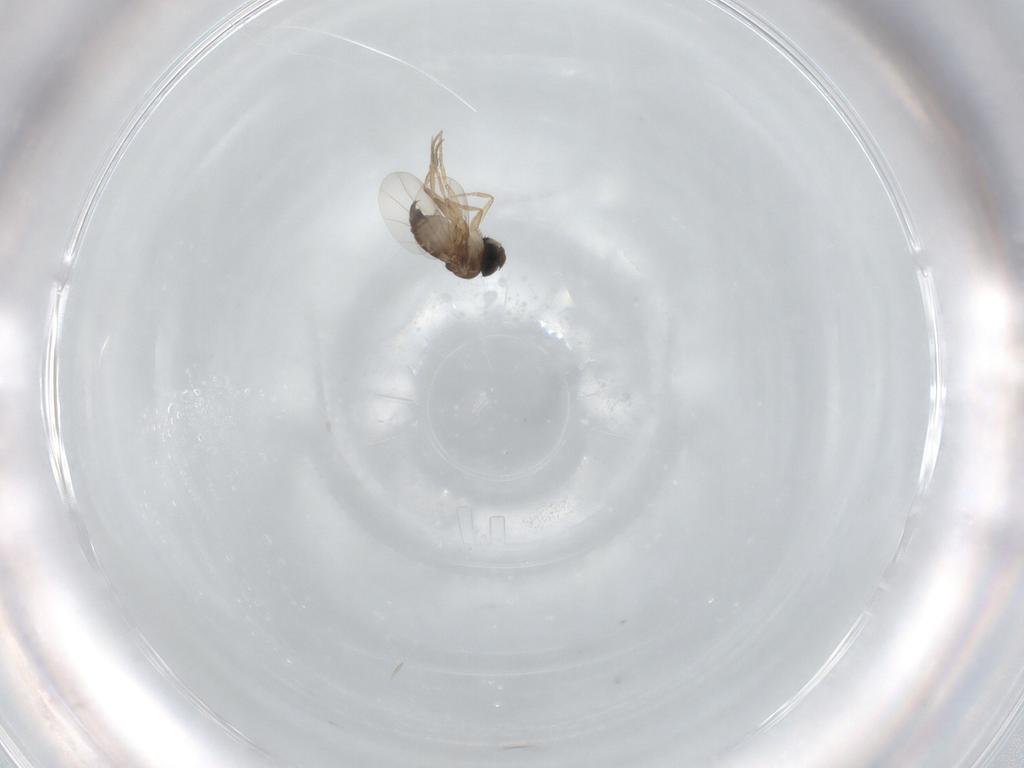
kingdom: Animalia
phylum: Arthropoda
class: Insecta
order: Diptera
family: Phoridae
